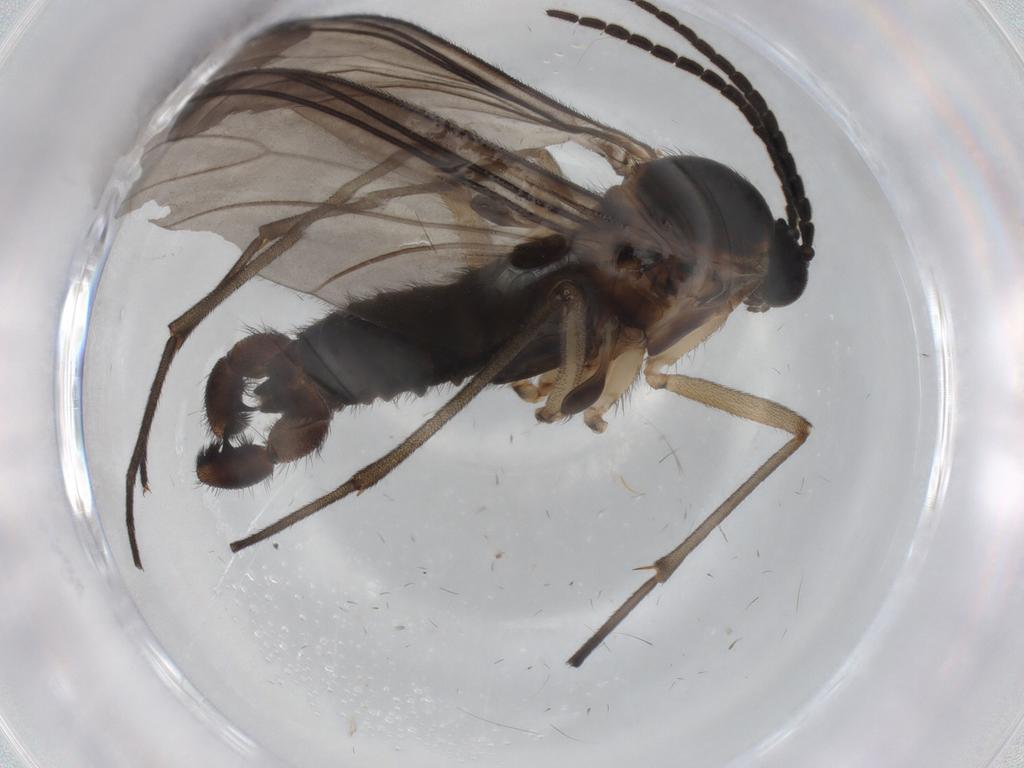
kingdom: Animalia
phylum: Arthropoda
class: Insecta
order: Diptera
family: Sciaridae
